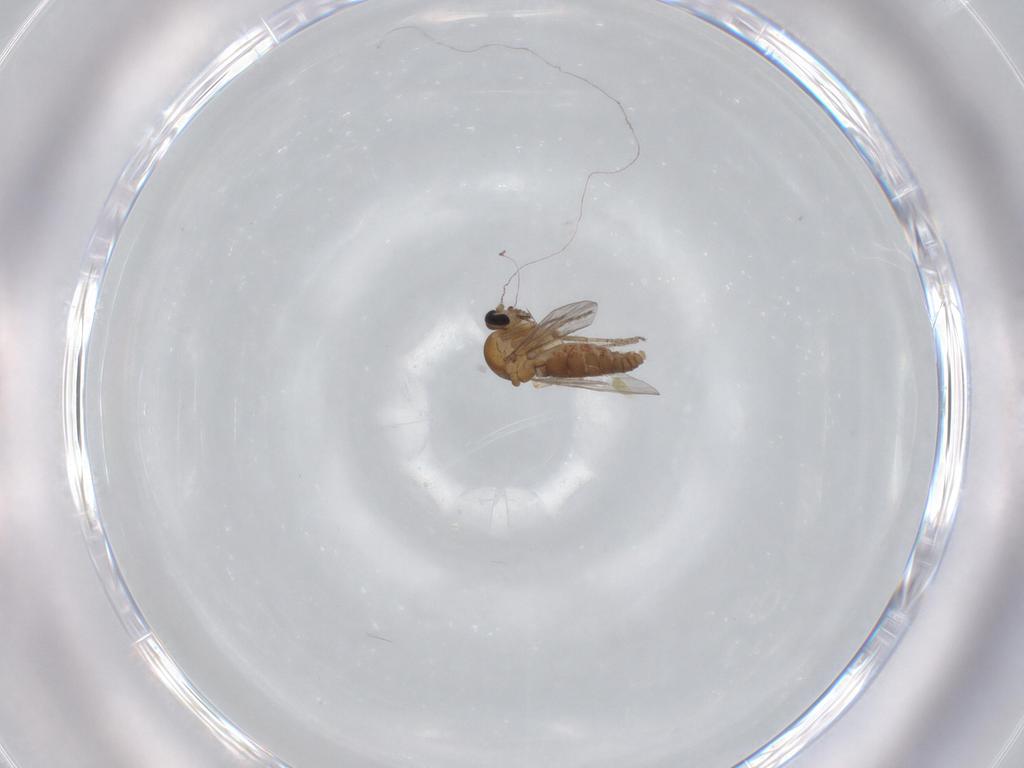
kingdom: Animalia
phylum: Arthropoda
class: Insecta
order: Diptera
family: Ceratopogonidae
